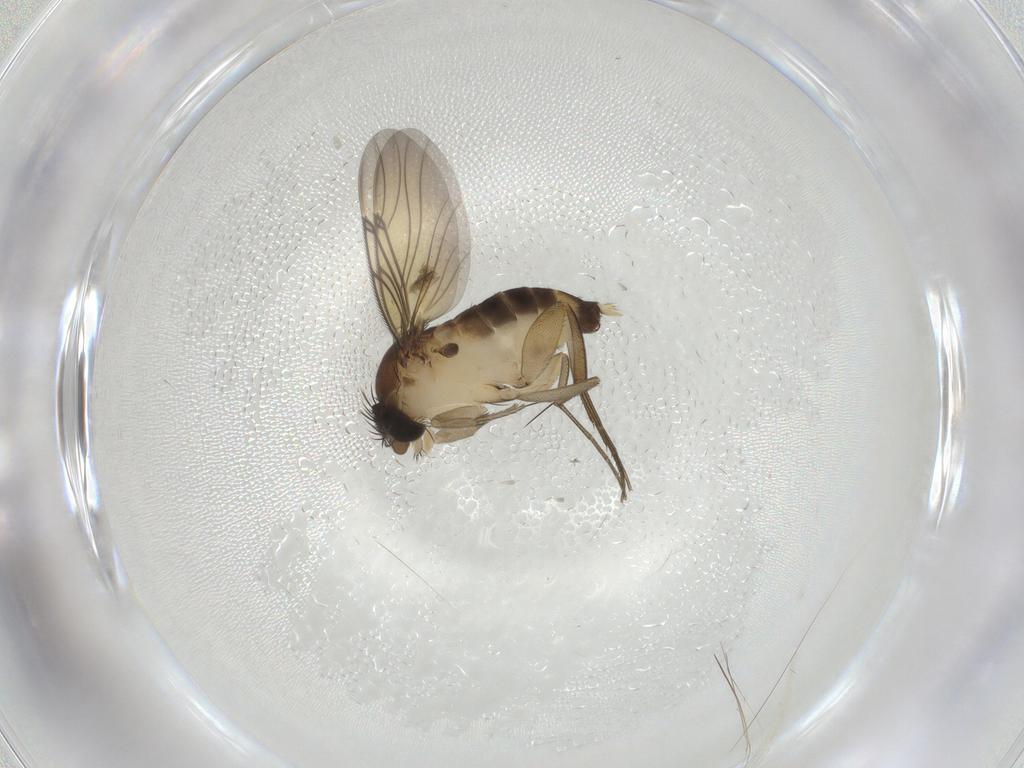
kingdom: Animalia
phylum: Arthropoda
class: Insecta
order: Diptera
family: Cecidomyiidae
